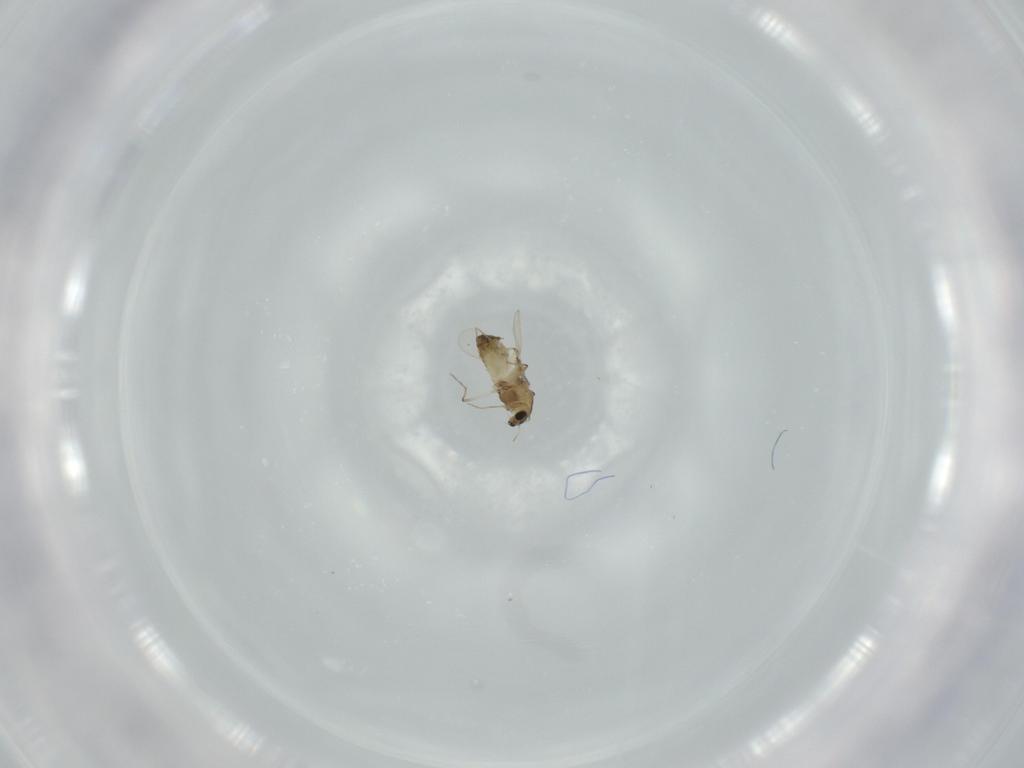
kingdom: Animalia
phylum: Arthropoda
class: Insecta
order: Diptera
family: Chironomidae
